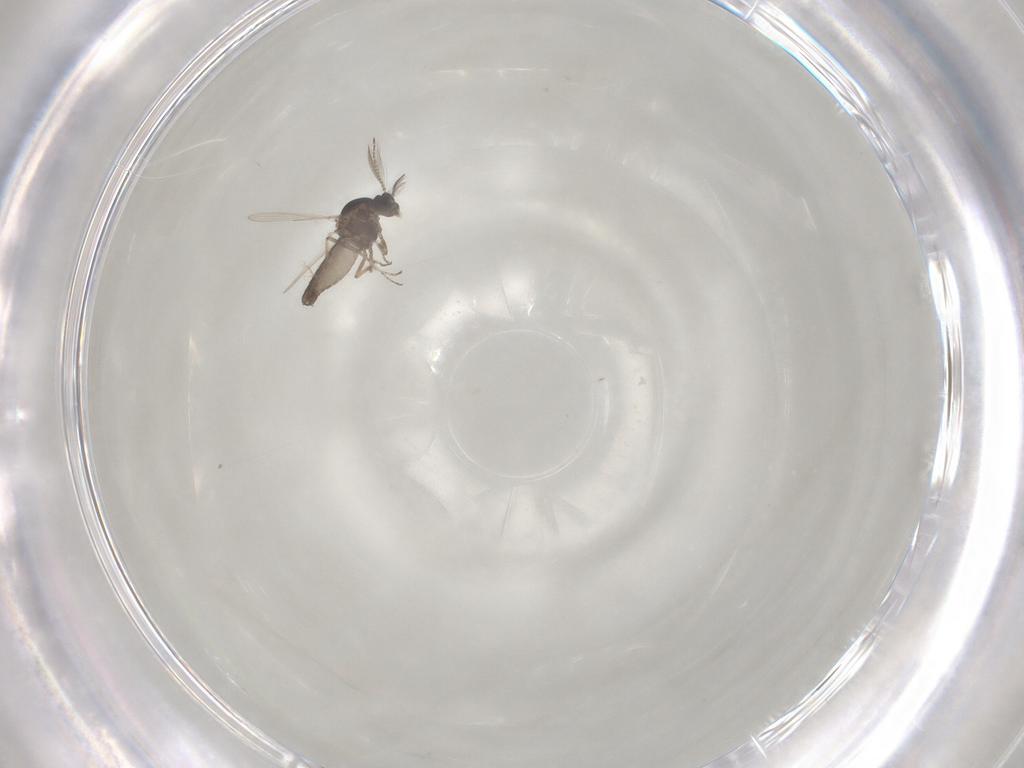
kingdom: Animalia
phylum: Arthropoda
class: Insecta
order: Diptera
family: Ceratopogonidae
